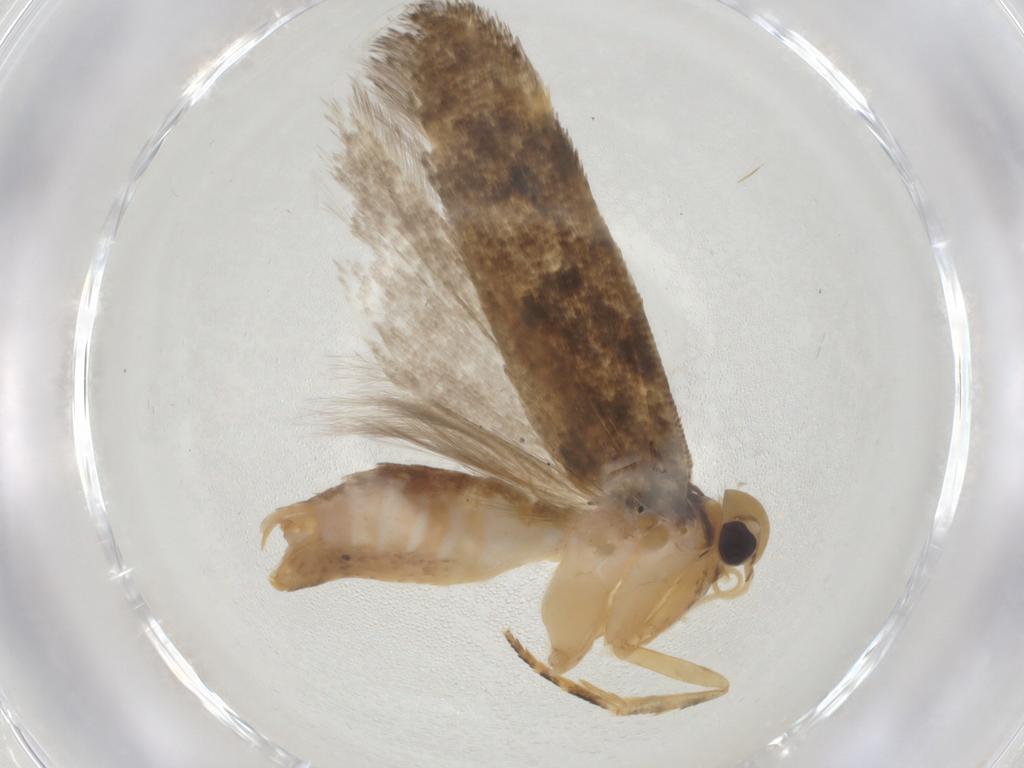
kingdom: Animalia
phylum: Arthropoda
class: Insecta
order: Lepidoptera
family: Gelechiidae
